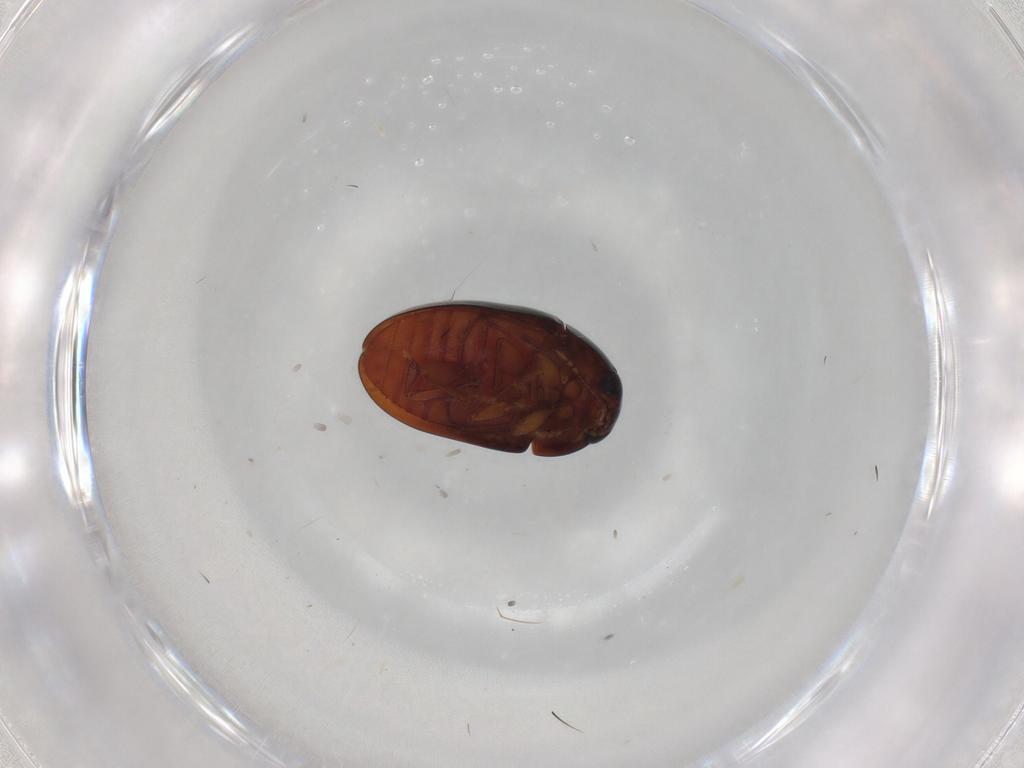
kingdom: Animalia
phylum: Arthropoda
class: Insecta
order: Coleoptera
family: Phalacridae
